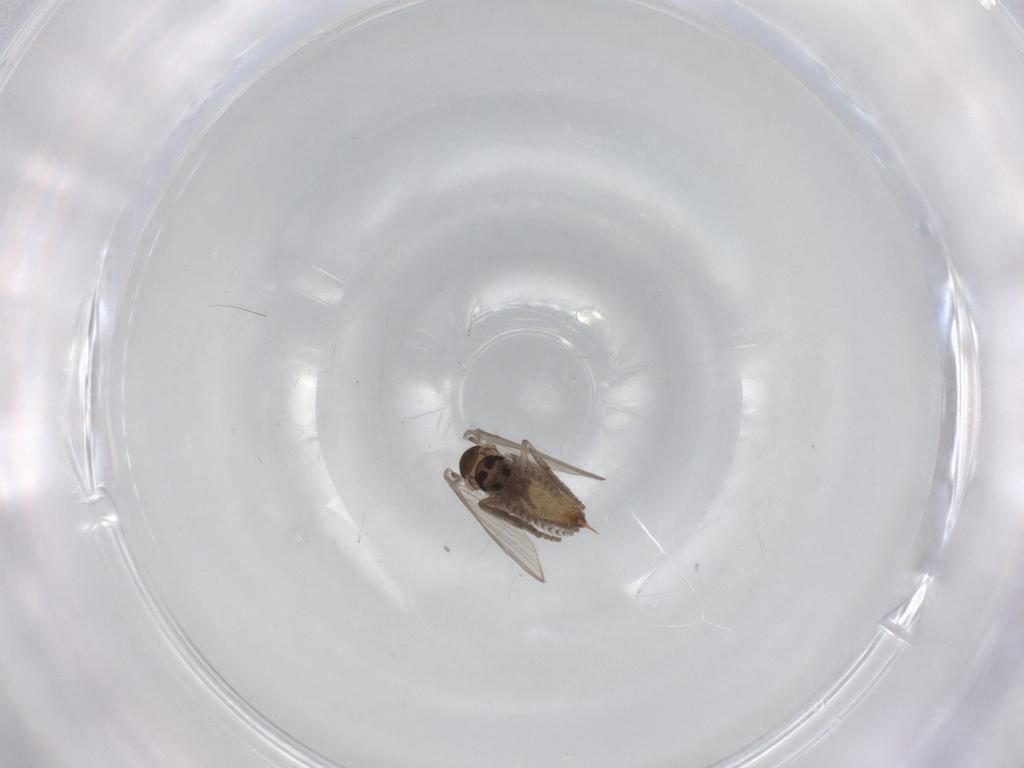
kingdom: Animalia
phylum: Arthropoda
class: Insecta
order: Diptera
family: Psychodidae
